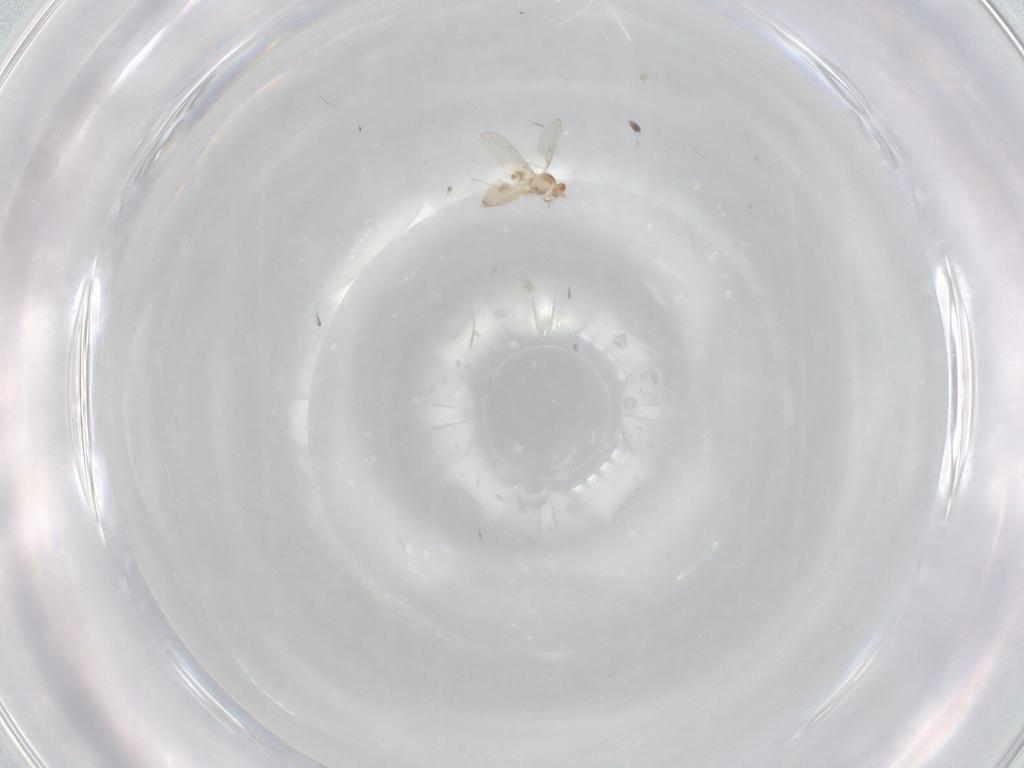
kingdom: Animalia
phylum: Arthropoda
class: Insecta
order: Diptera
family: Cecidomyiidae
